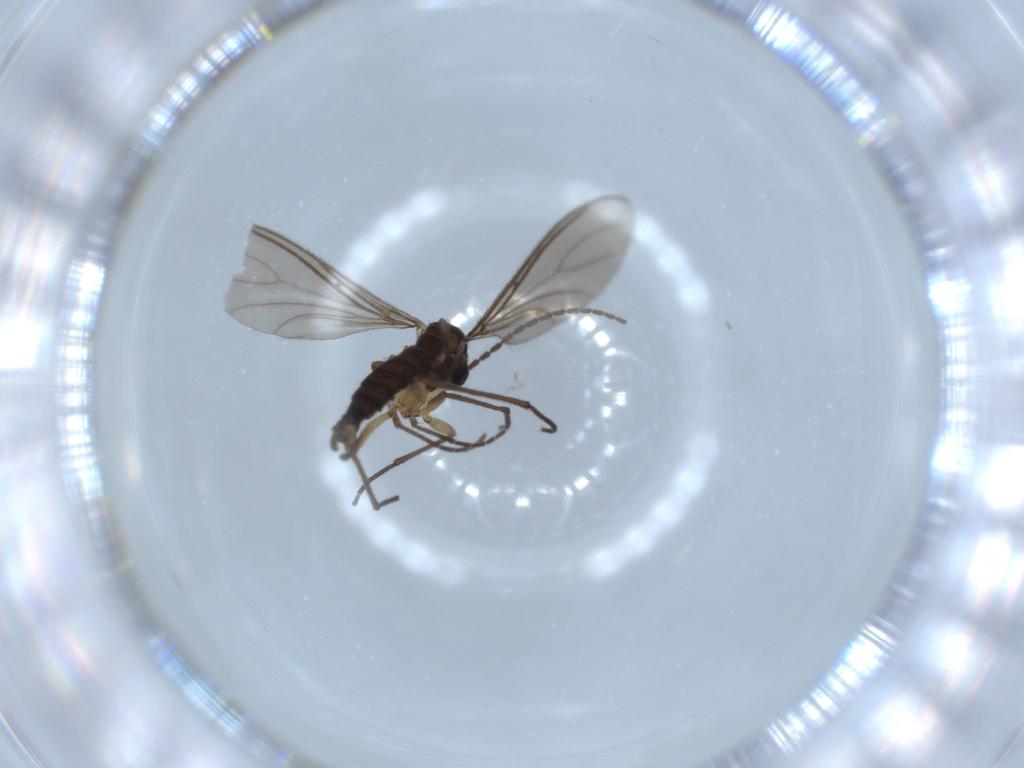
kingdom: Animalia
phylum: Arthropoda
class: Insecta
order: Diptera
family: Sciaridae
